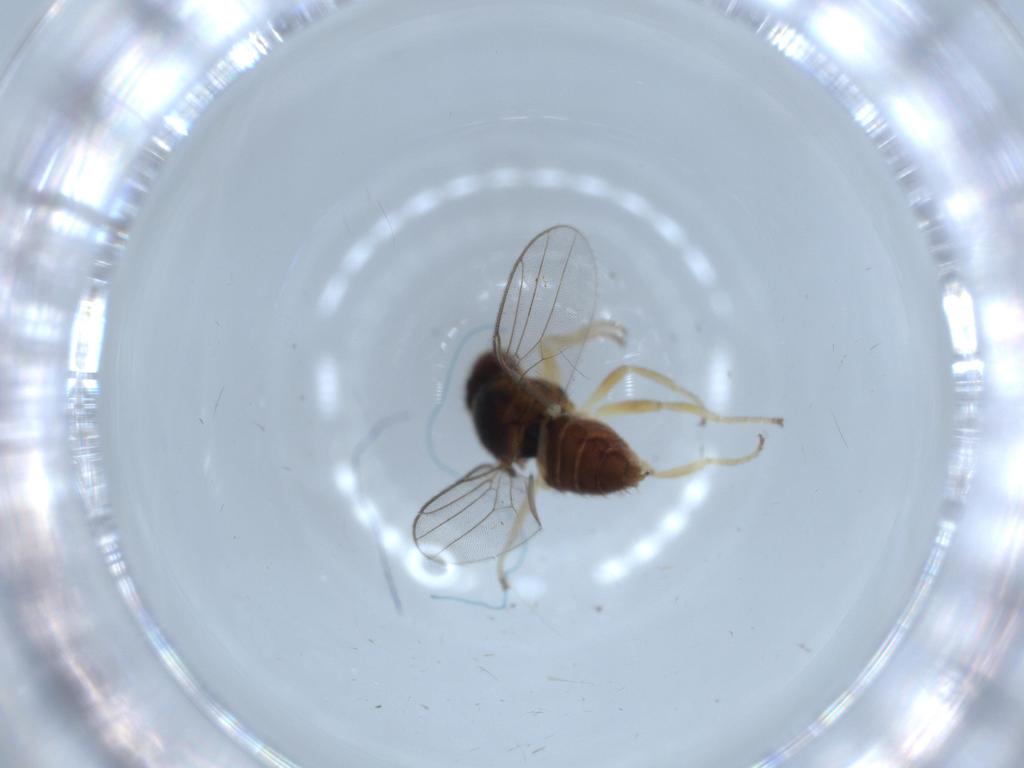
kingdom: Animalia
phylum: Arthropoda
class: Insecta
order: Diptera
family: Chloropidae
